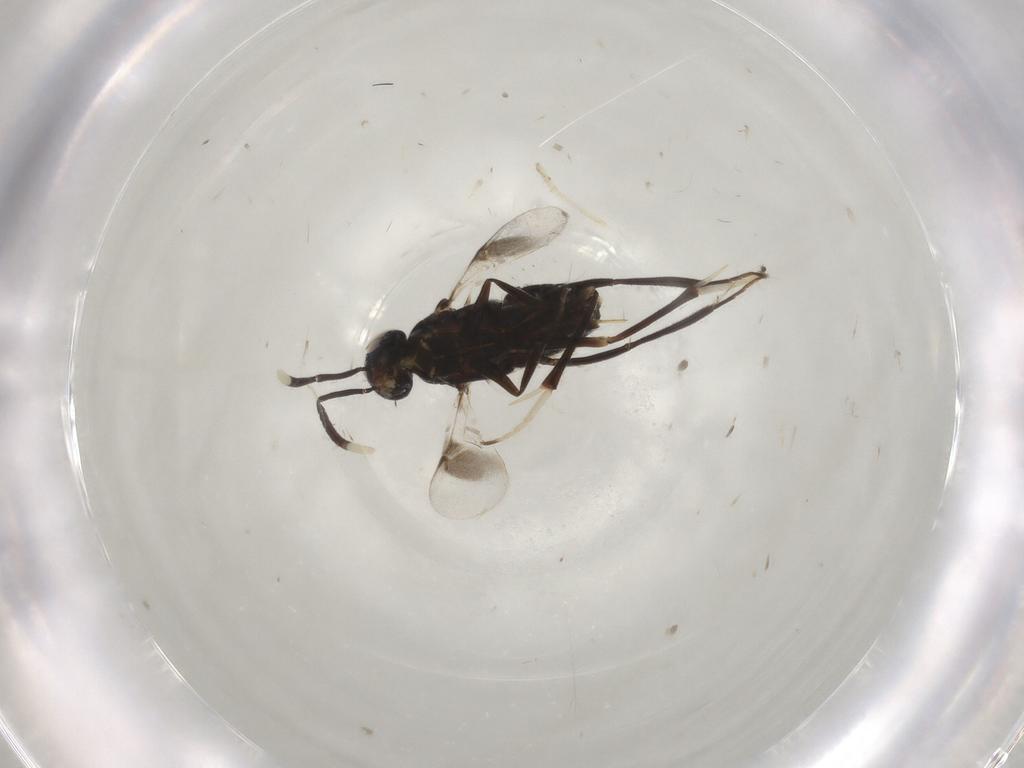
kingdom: Animalia
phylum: Arthropoda
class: Insecta
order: Hymenoptera
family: Encyrtidae
